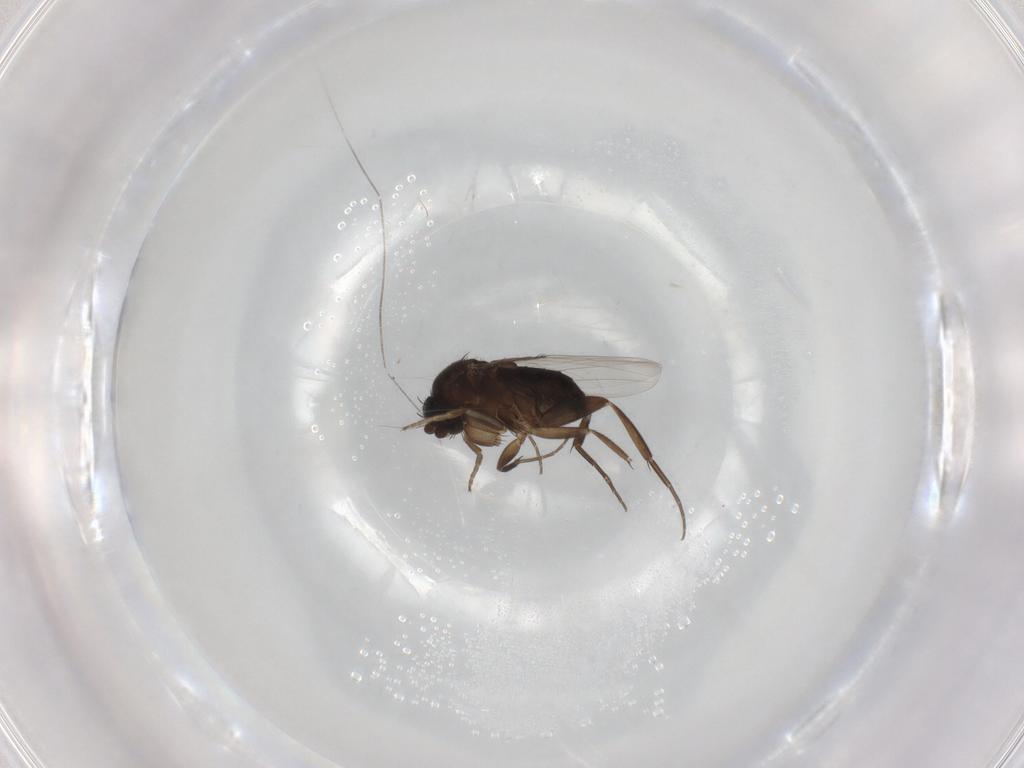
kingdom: Animalia
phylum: Arthropoda
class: Insecta
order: Diptera
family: Phoridae
